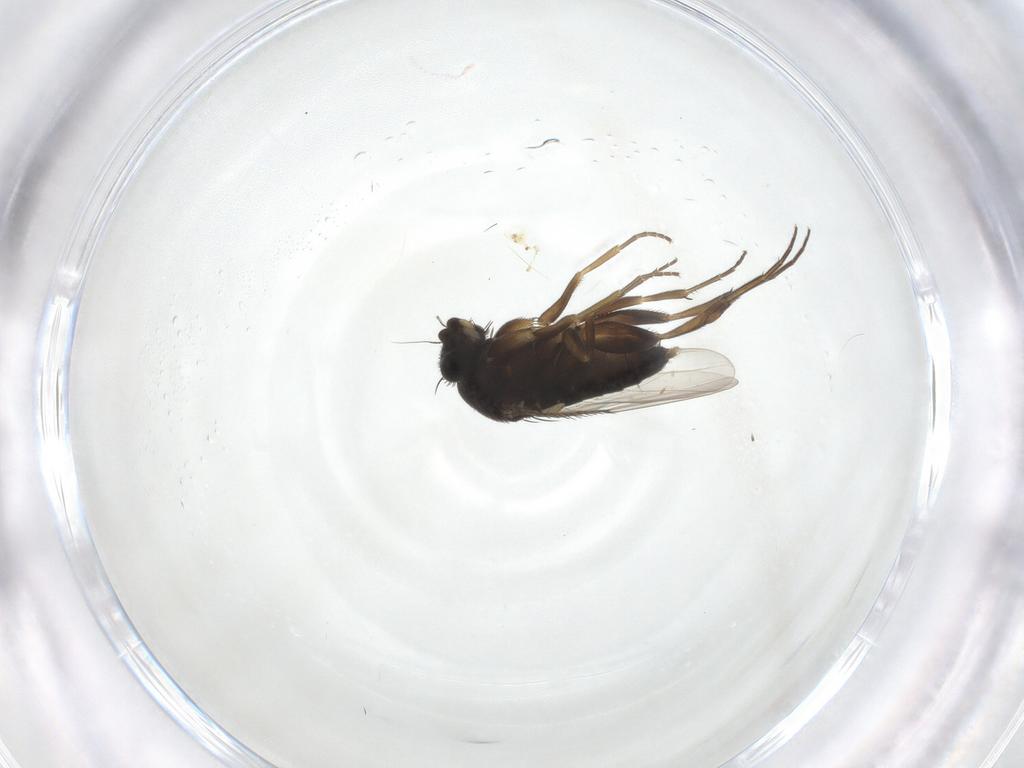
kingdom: Animalia
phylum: Arthropoda
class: Insecta
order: Diptera
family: Phoridae
